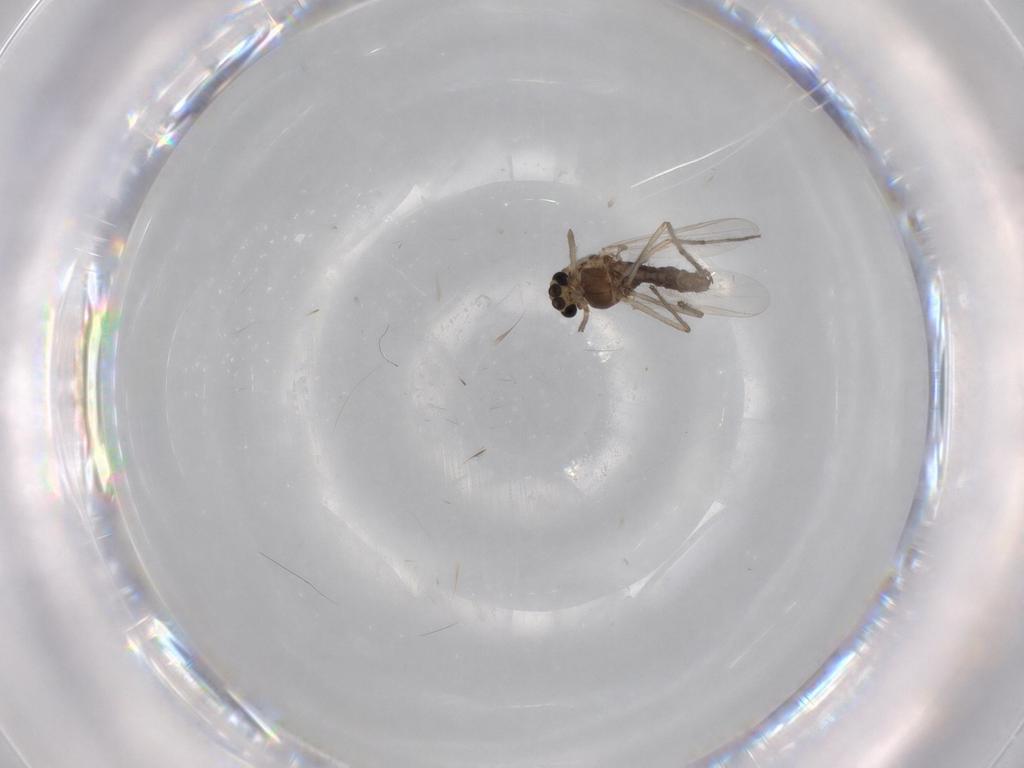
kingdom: Animalia
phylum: Arthropoda
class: Insecta
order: Diptera
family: Chironomidae
